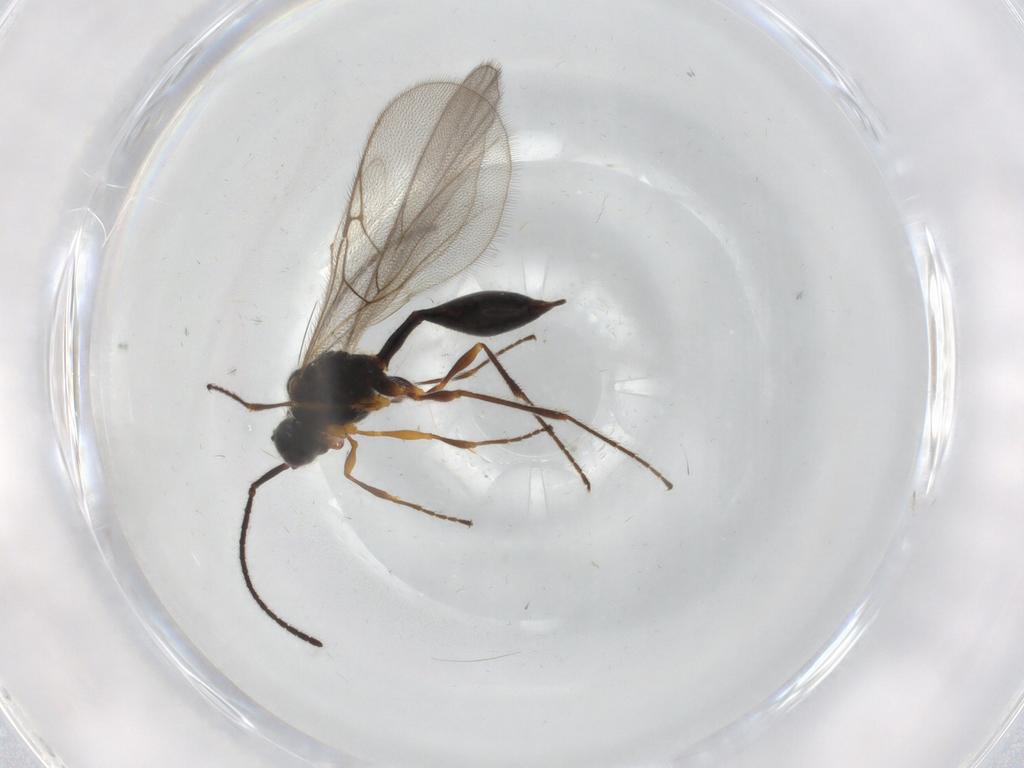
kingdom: Animalia
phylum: Arthropoda
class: Insecta
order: Hymenoptera
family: Diapriidae
